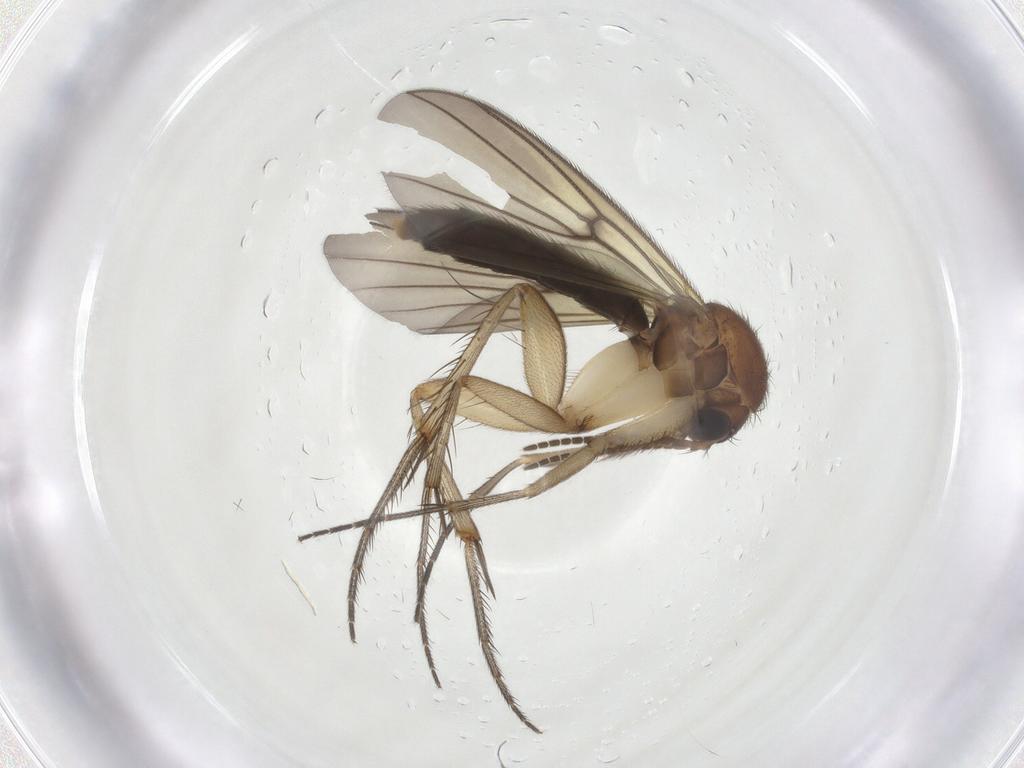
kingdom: Animalia
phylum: Arthropoda
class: Insecta
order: Diptera
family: Mycetophilidae
